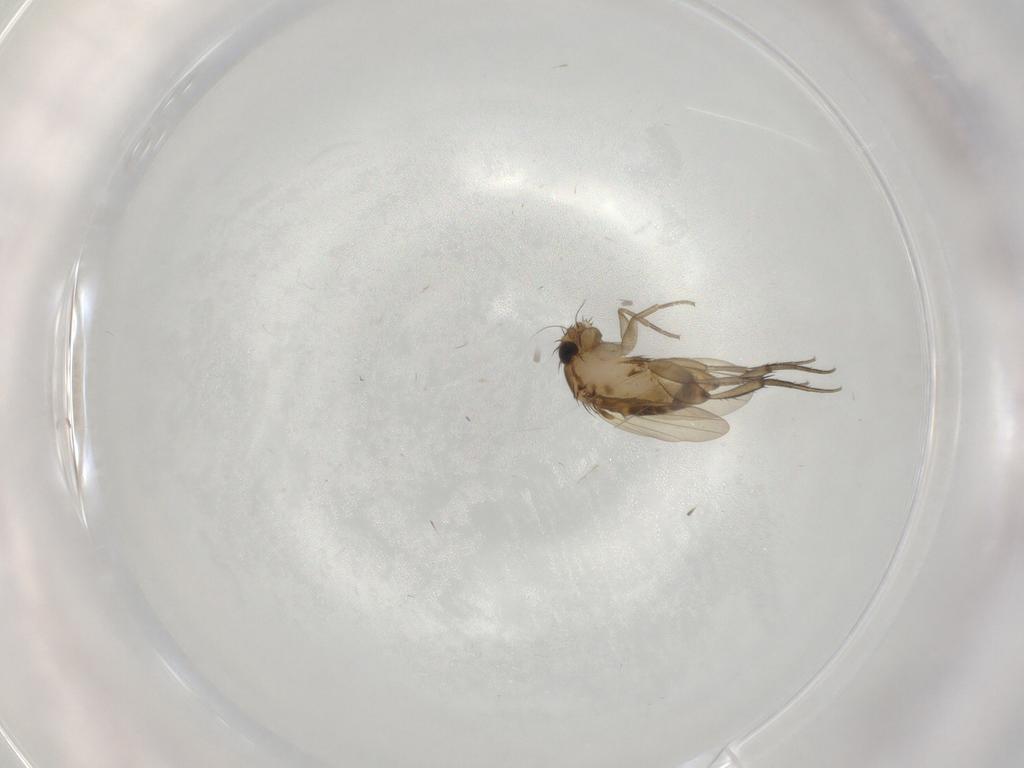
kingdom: Animalia
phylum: Arthropoda
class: Insecta
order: Diptera
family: Phoridae
